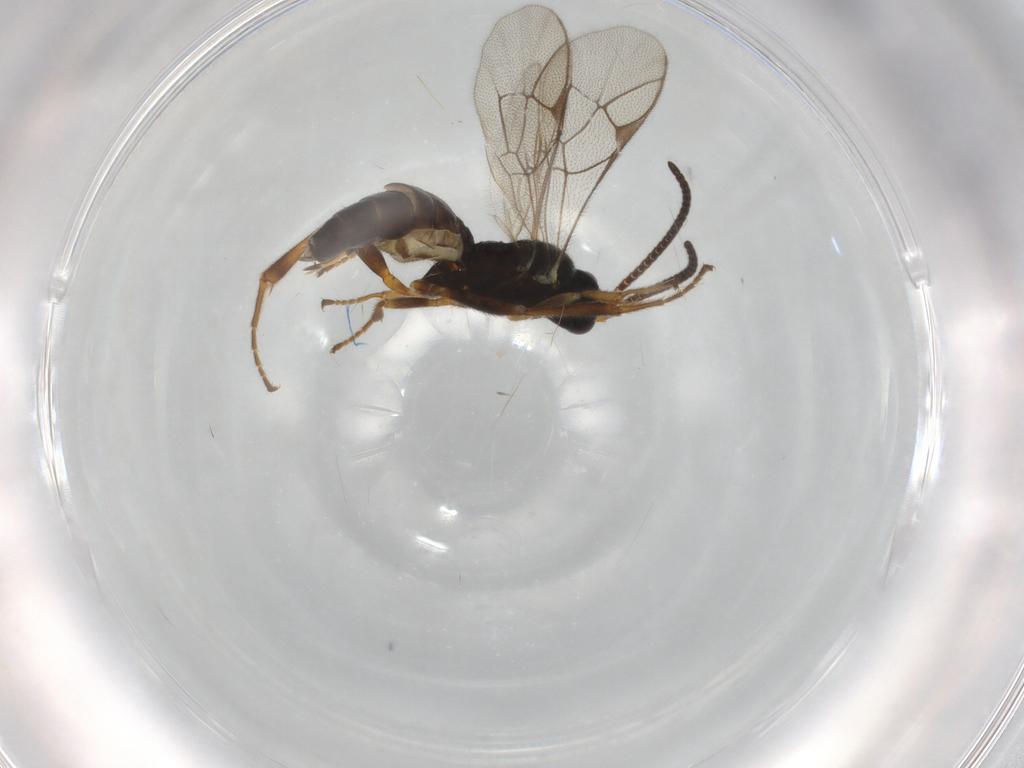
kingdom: Animalia
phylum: Arthropoda
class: Insecta
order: Hymenoptera
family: Ichneumonidae
